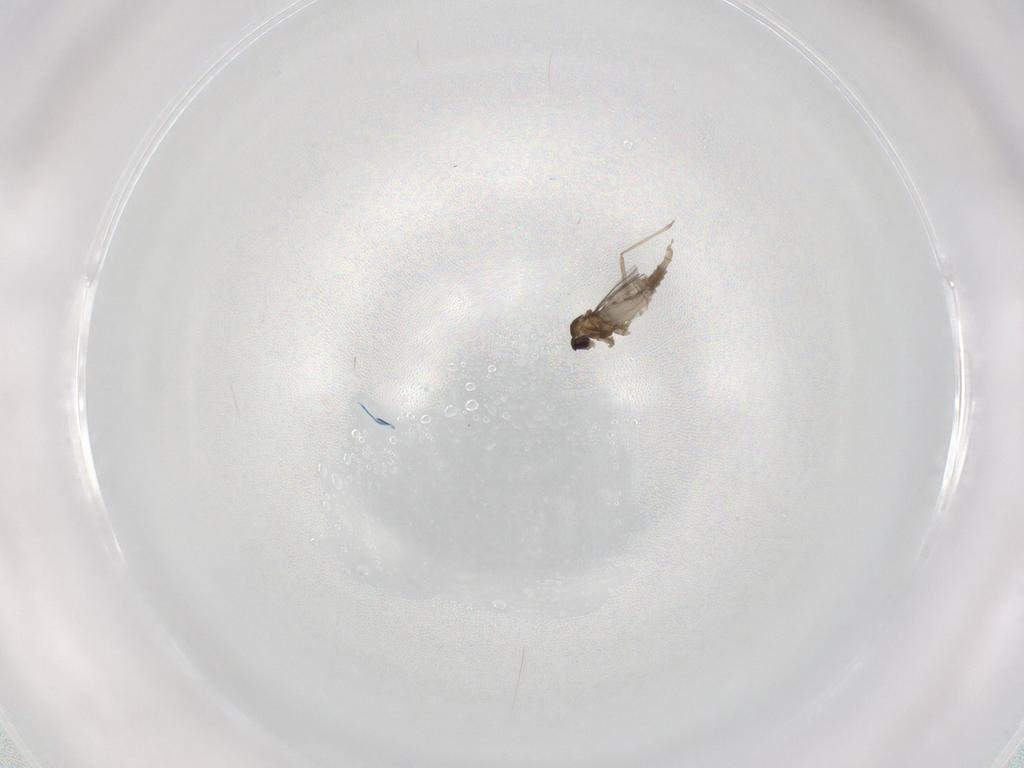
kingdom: Animalia
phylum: Arthropoda
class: Insecta
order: Diptera
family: Cecidomyiidae
